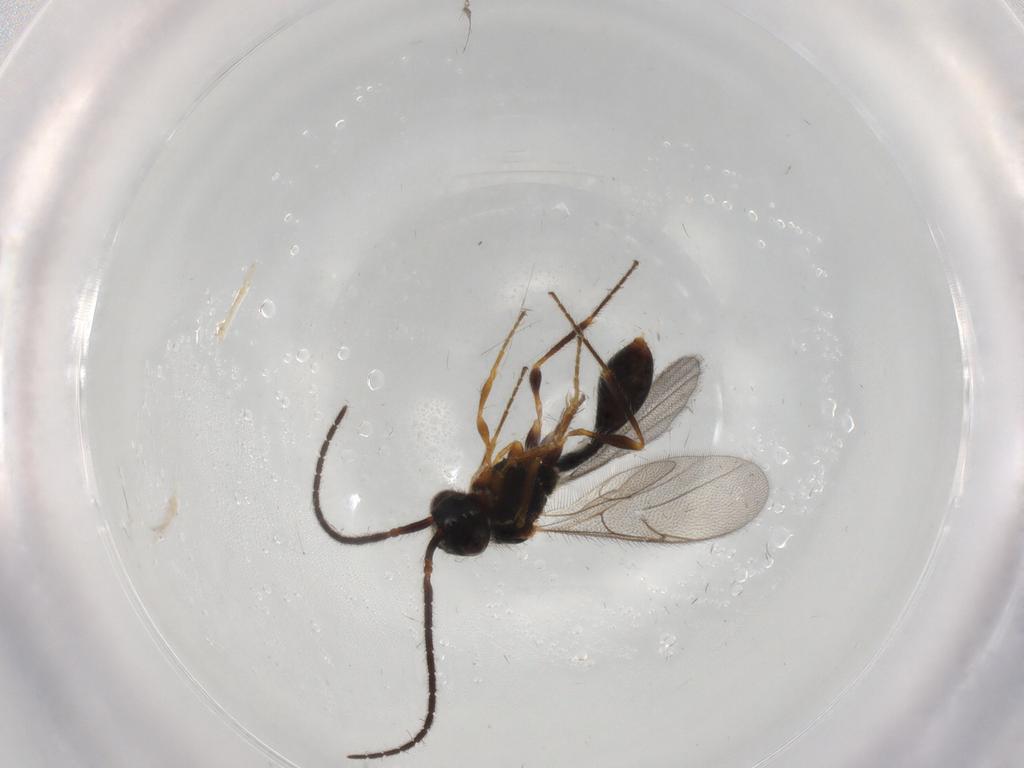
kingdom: Animalia
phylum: Arthropoda
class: Insecta
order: Hymenoptera
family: Diapriidae
